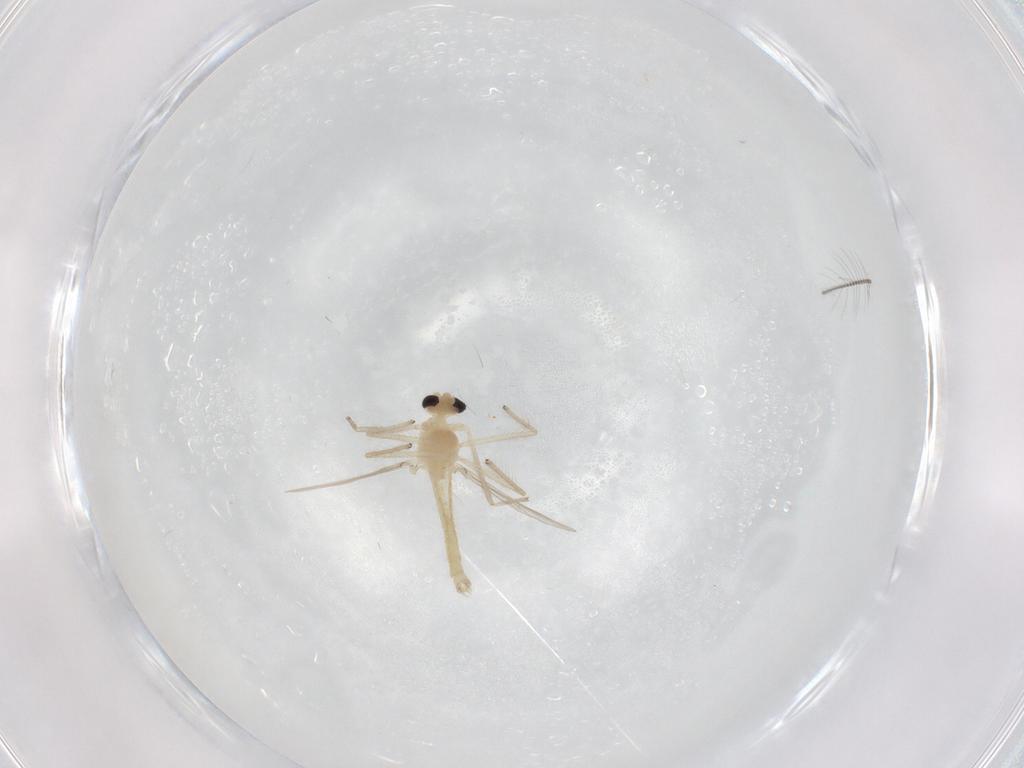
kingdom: Animalia
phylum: Arthropoda
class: Insecta
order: Diptera
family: Chironomidae
